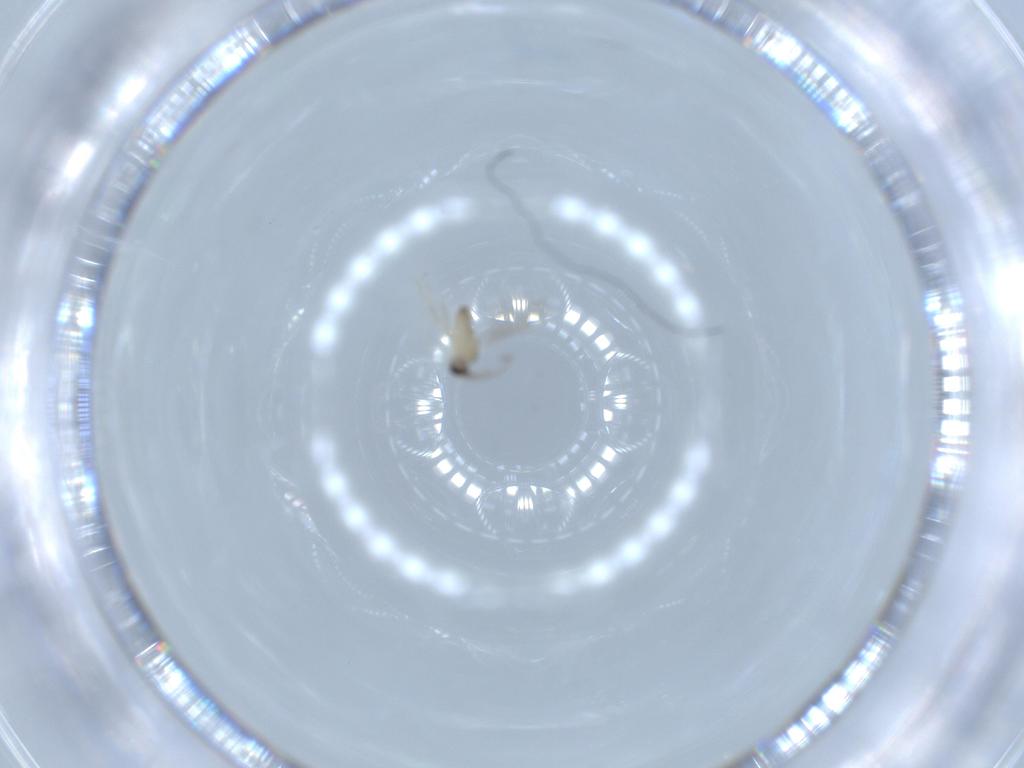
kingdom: Animalia
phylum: Arthropoda
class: Insecta
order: Diptera
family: Cecidomyiidae
